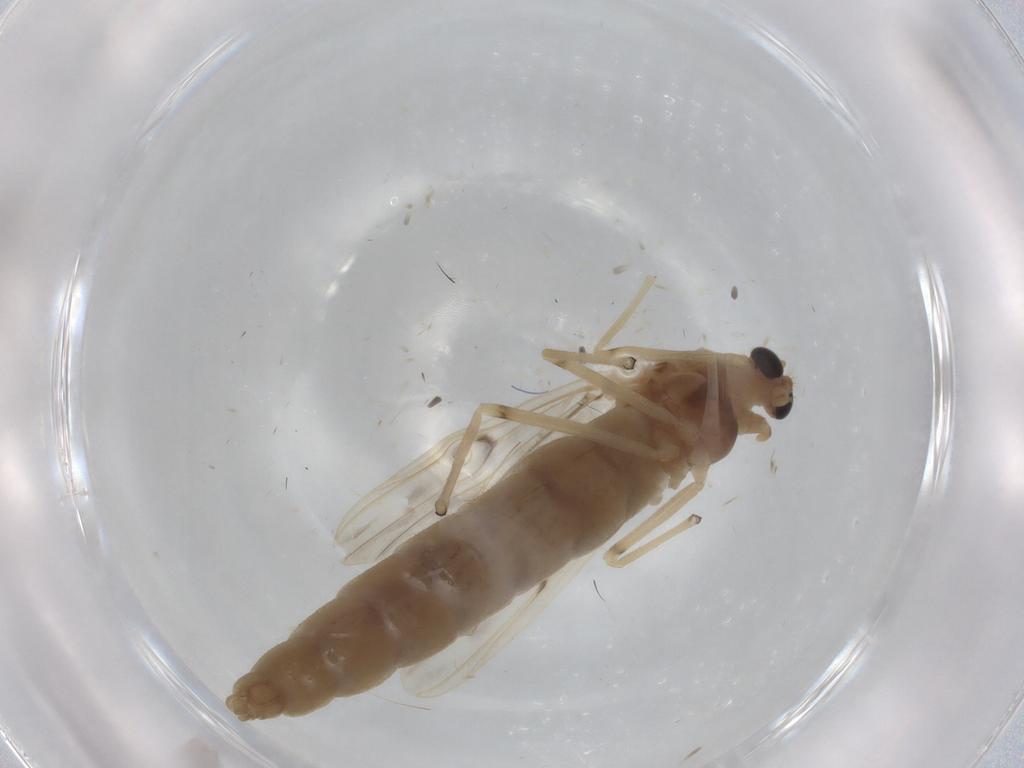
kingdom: Animalia
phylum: Arthropoda
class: Insecta
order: Diptera
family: Chironomidae
